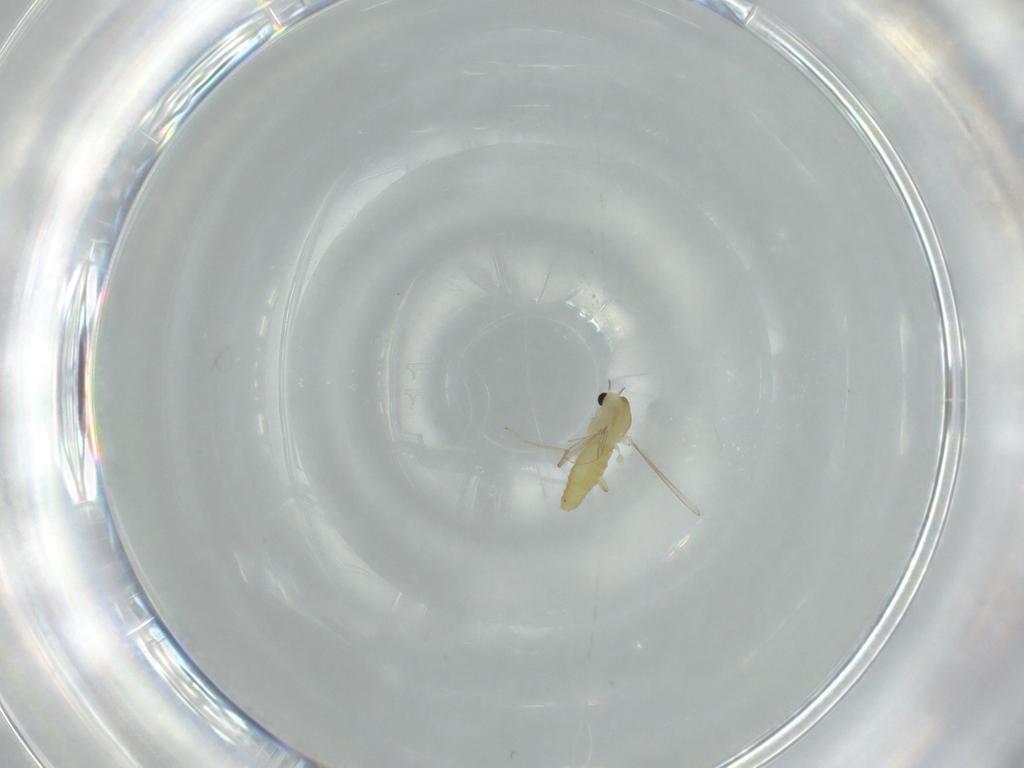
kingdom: Animalia
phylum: Arthropoda
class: Insecta
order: Diptera
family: Chironomidae
